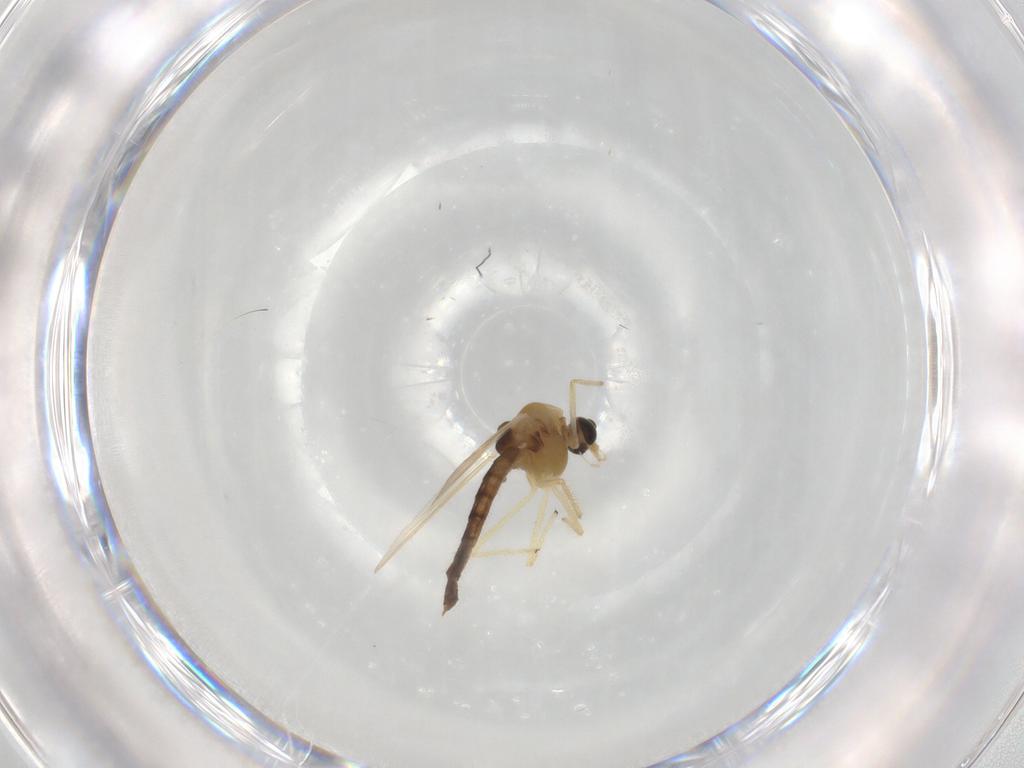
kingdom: Animalia
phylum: Arthropoda
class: Insecta
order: Diptera
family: Chironomidae
